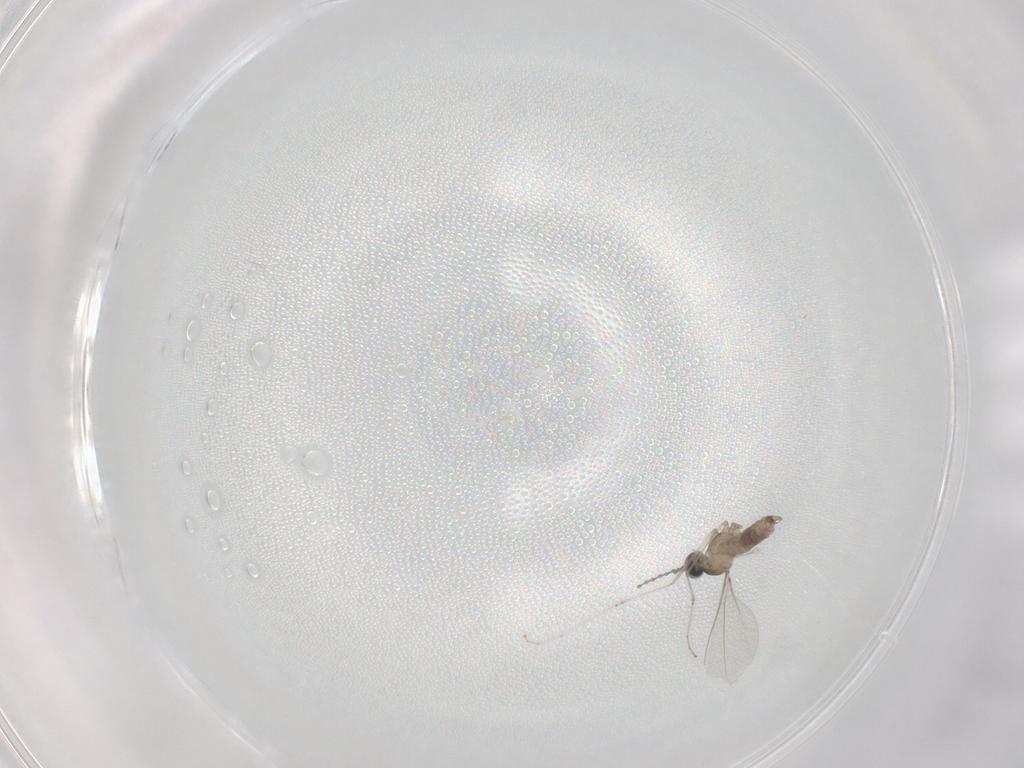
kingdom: Animalia
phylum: Arthropoda
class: Insecta
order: Diptera
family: Cecidomyiidae
